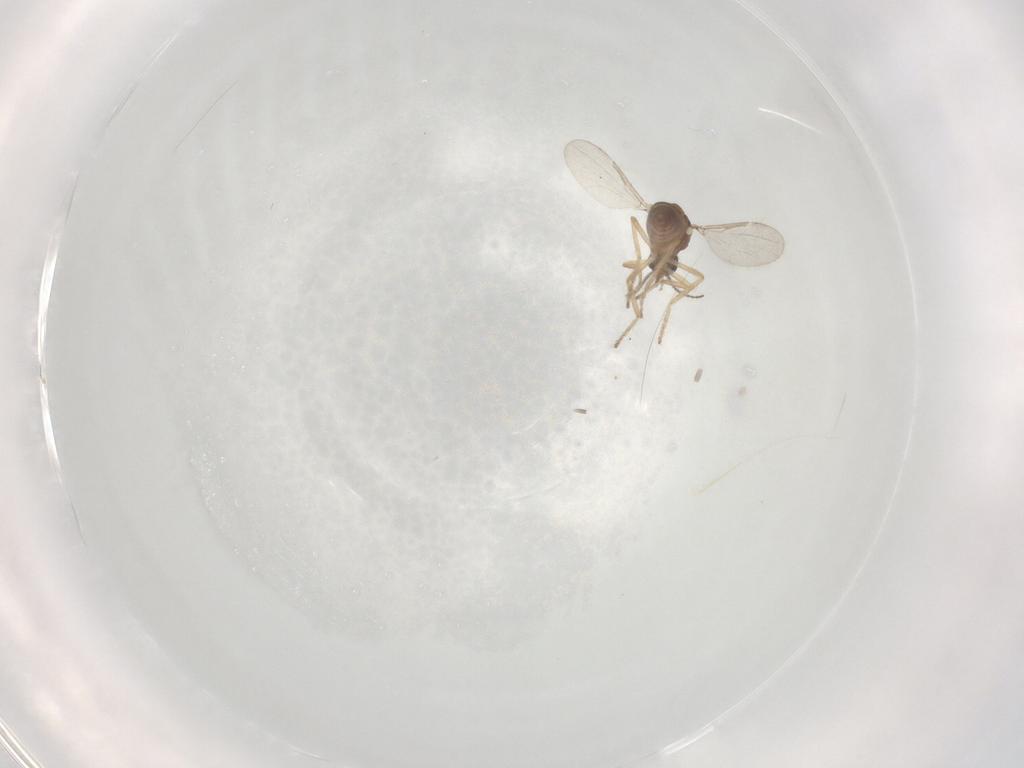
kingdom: Animalia
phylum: Arthropoda
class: Insecta
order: Diptera
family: Ceratopogonidae
